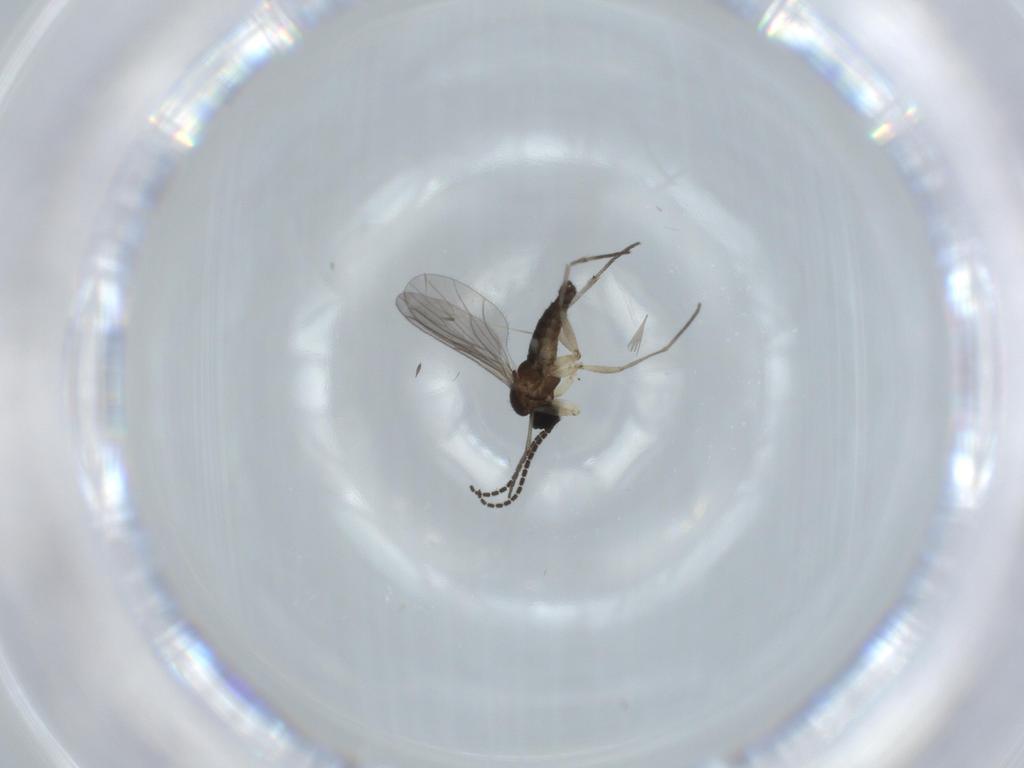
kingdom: Animalia
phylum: Arthropoda
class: Insecta
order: Diptera
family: Sciaridae
